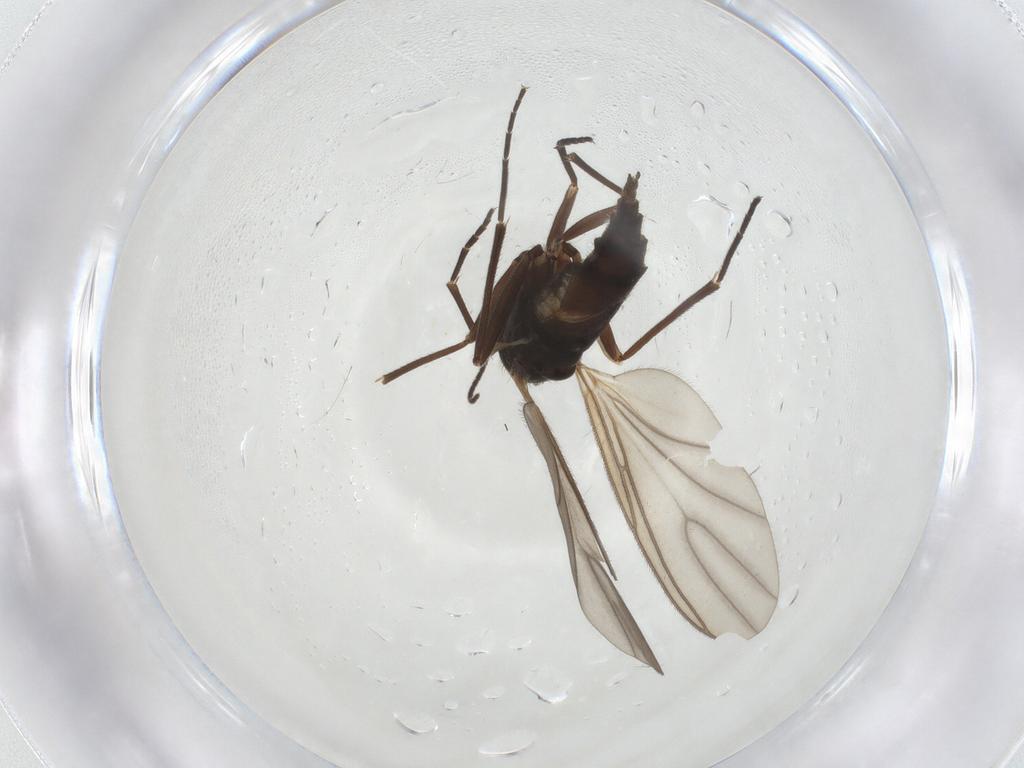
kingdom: Animalia
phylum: Arthropoda
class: Insecta
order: Diptera
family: Sciaridae
